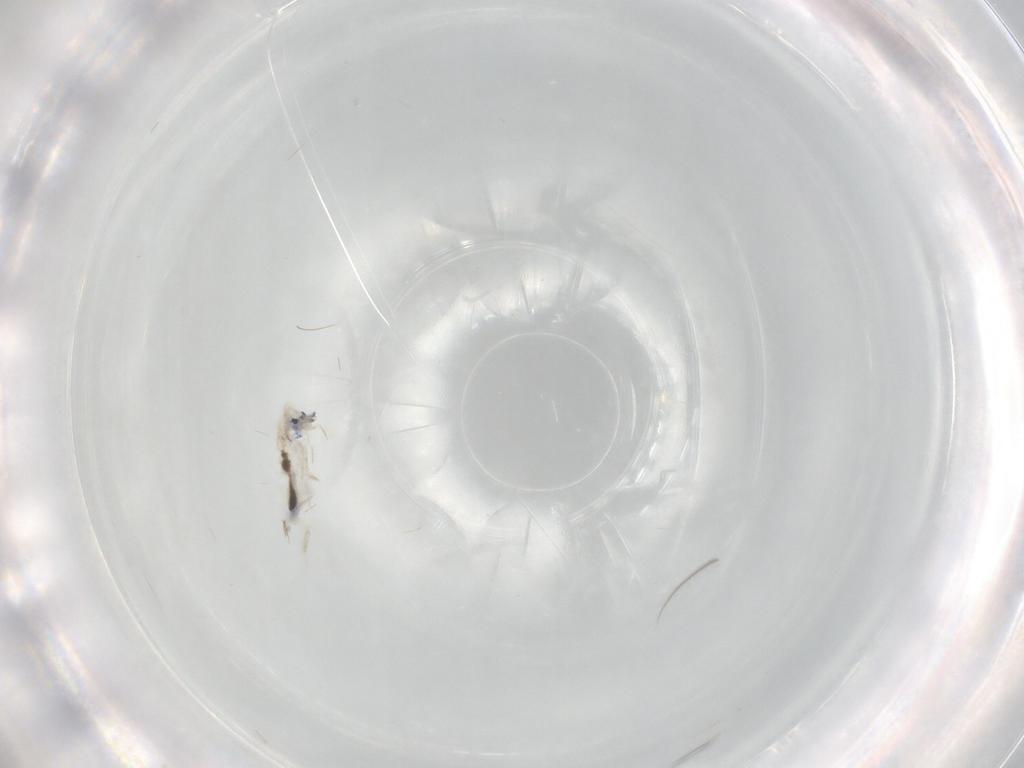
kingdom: Animalia
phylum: Arthropoda
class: Collembola
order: Entomobryomorpha
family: Entomobryidae
